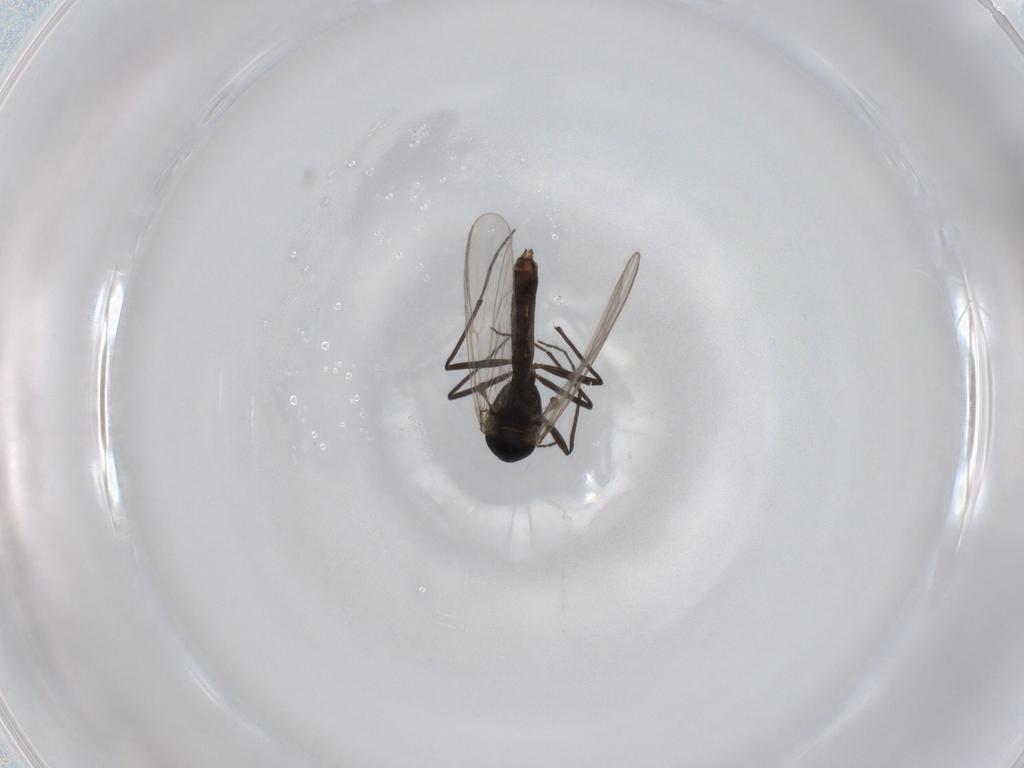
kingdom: Animalia
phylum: Arthropoda
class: Insecta
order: Diptera
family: Chironomidae
